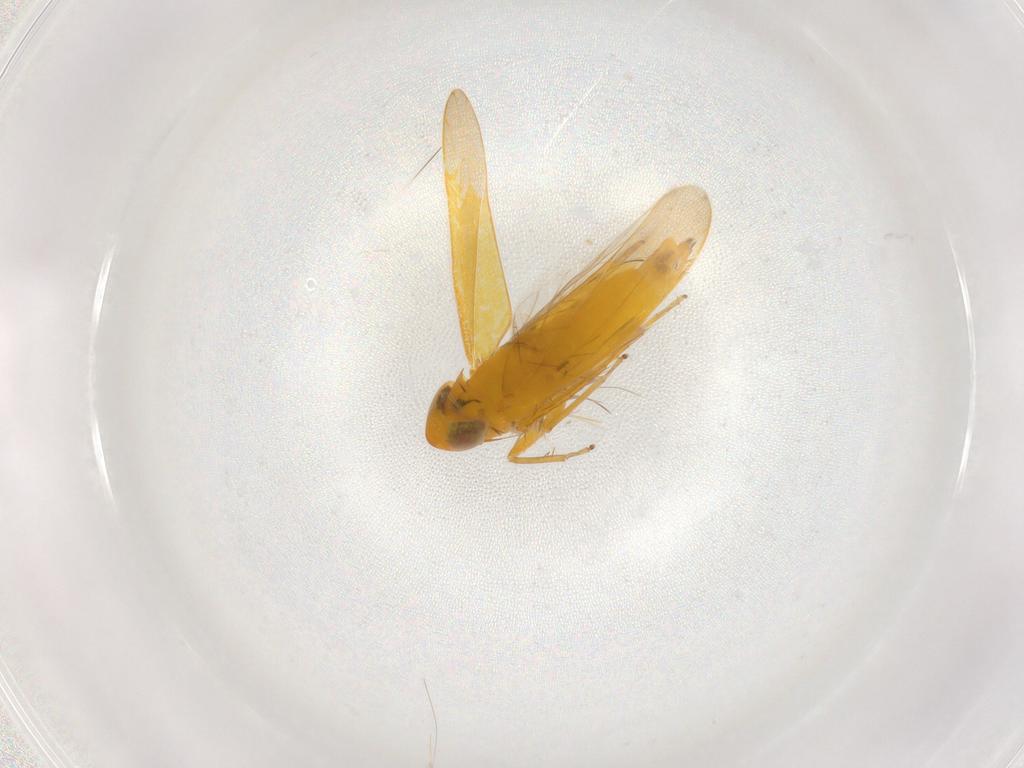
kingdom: Animalia
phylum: Arthropoda
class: Insecta
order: Hemiptera
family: Cicadellidae
